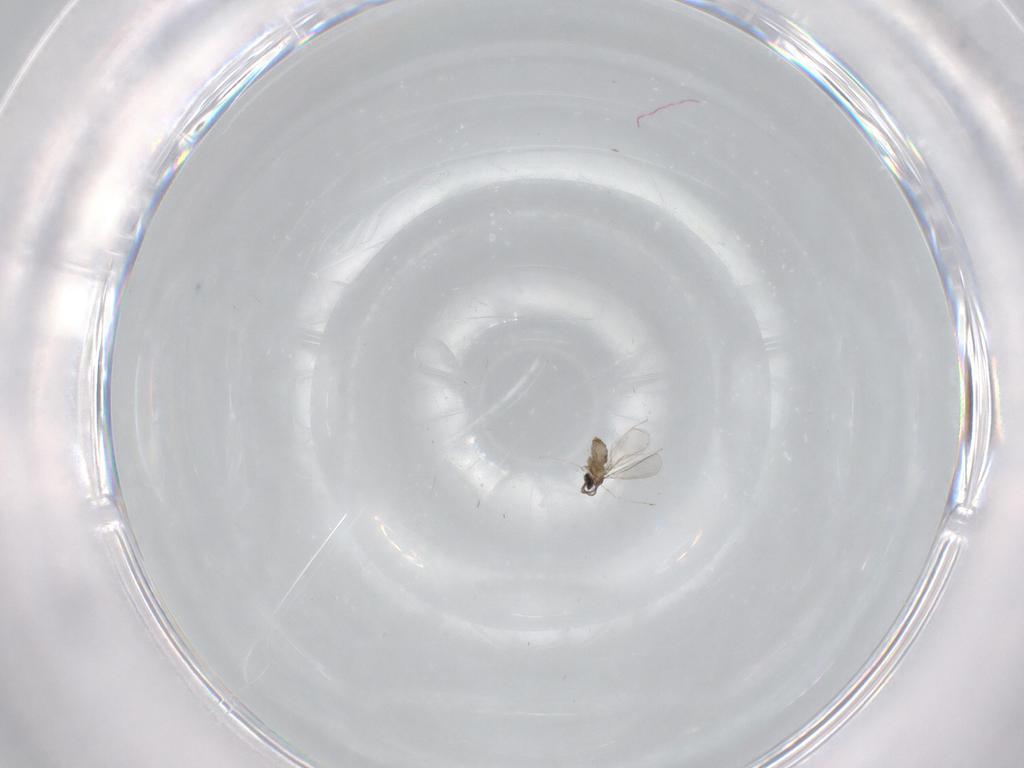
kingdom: Animalia
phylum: Arthropoda
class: Insecta
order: Diptera
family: Cecidomyiidae
